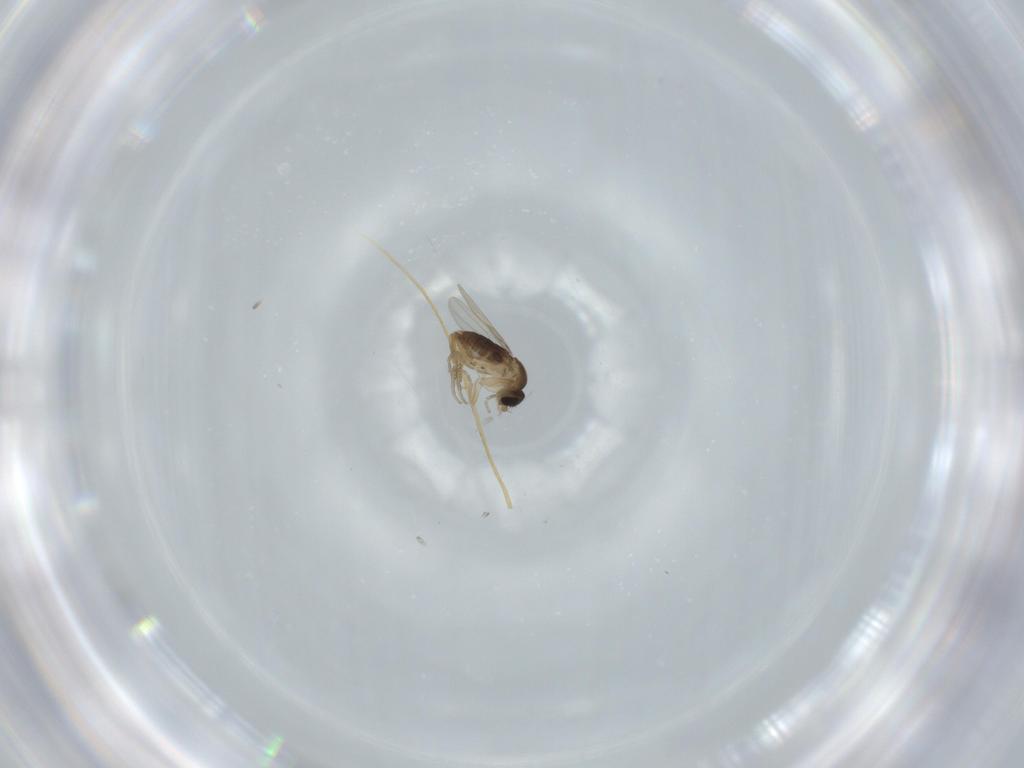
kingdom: Animalia
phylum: Arthropoda
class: Insecta
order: Diptera
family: Phoridae
